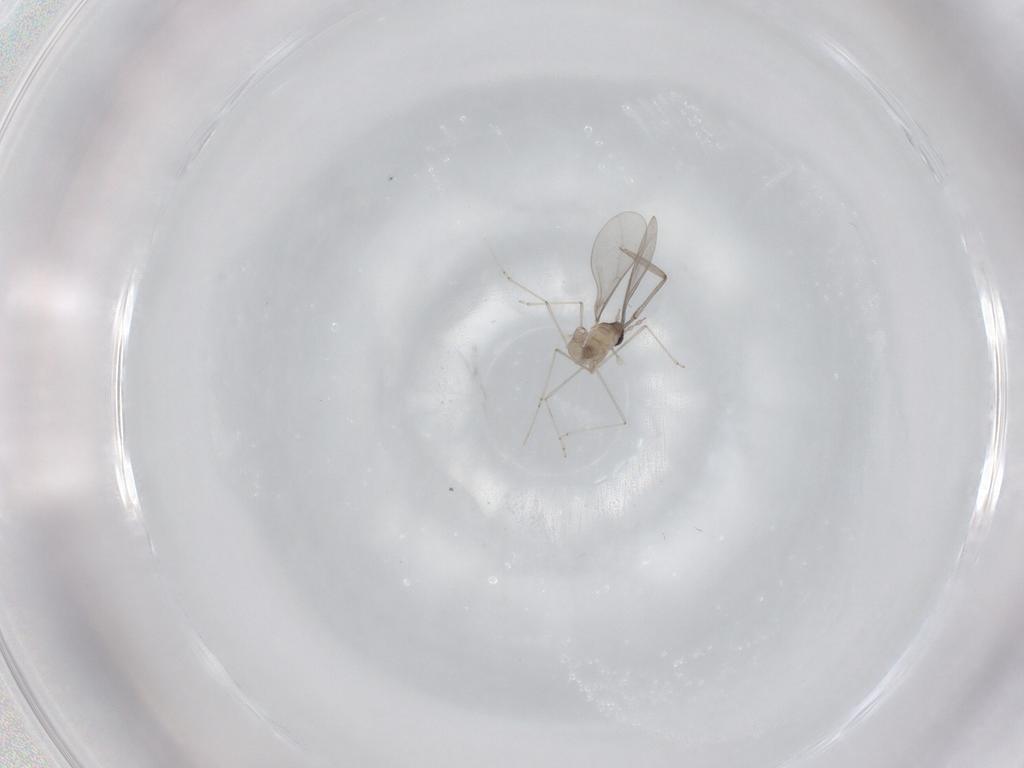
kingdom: Animalia
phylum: Arthropoda
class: Insecta
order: Diptera
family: Cecidomyiidae
